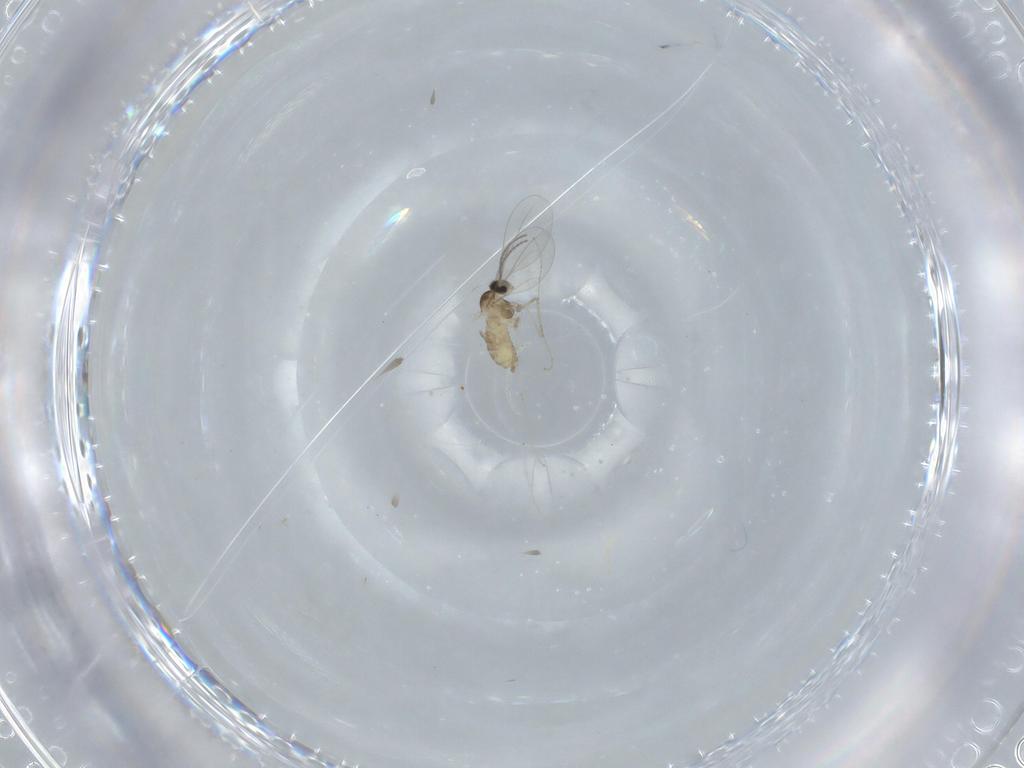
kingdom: Animalia
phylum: Arthropoda
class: Insecta
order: Diptera
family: Cecidomyiidae
